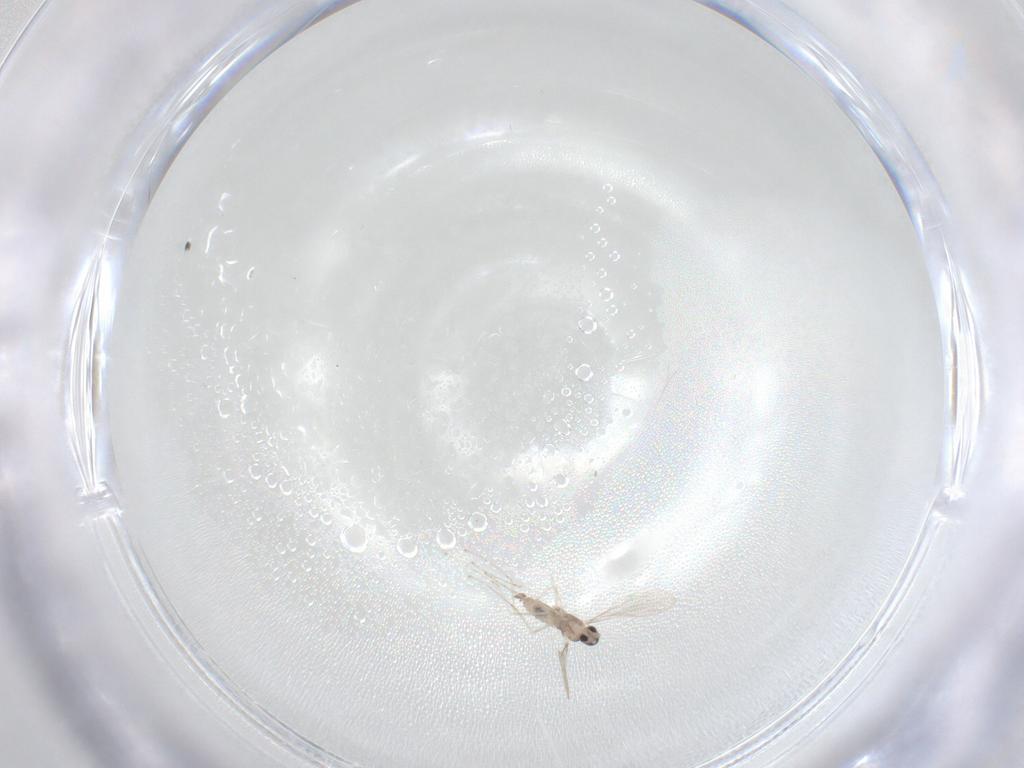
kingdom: Animalia
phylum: Arthropoda
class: Insecta
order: Diptera
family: Cecidomyiidae
